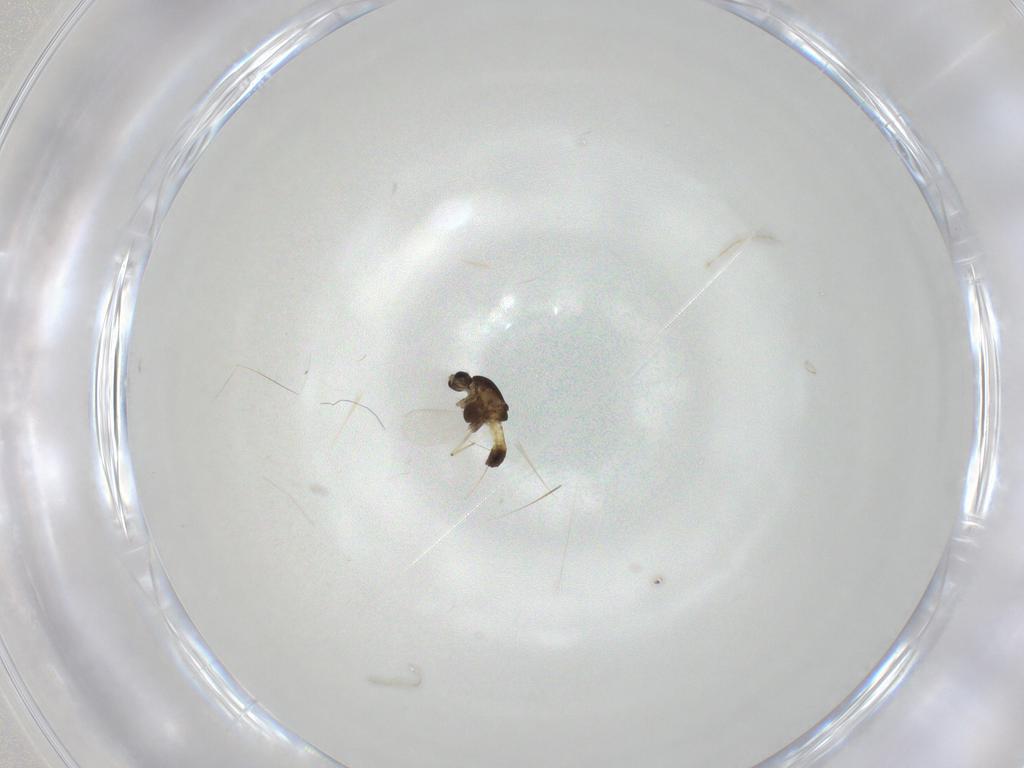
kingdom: Animalia
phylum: Arthropoda
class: Insecta
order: Diptera
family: Chironomidae
